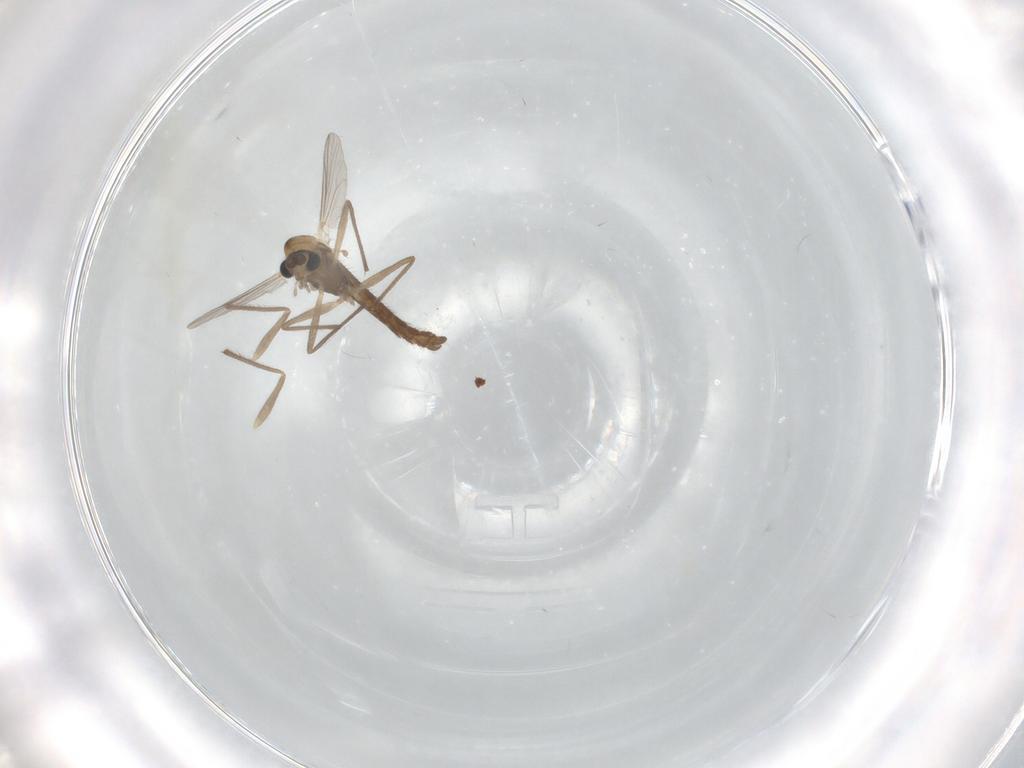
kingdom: Animalia
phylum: Arthropoda
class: Insecta
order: Diptera
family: Chironomidae
